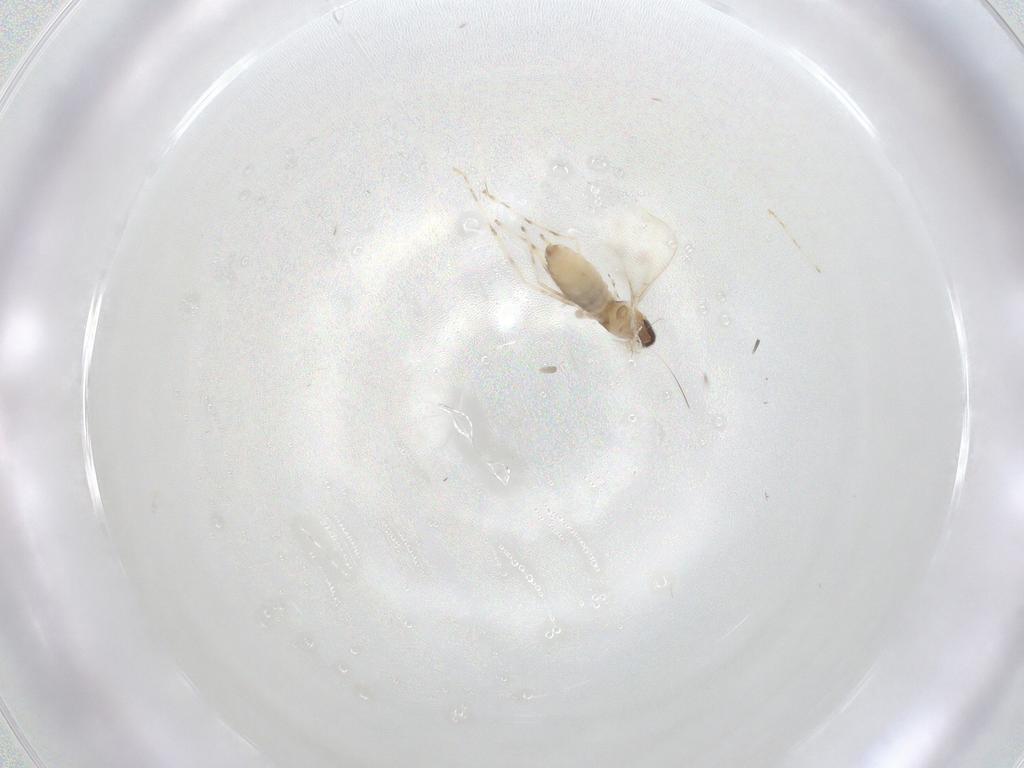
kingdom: Animalia
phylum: Arthropoda
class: Insecta
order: Diptera
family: Cecidomyiidae
